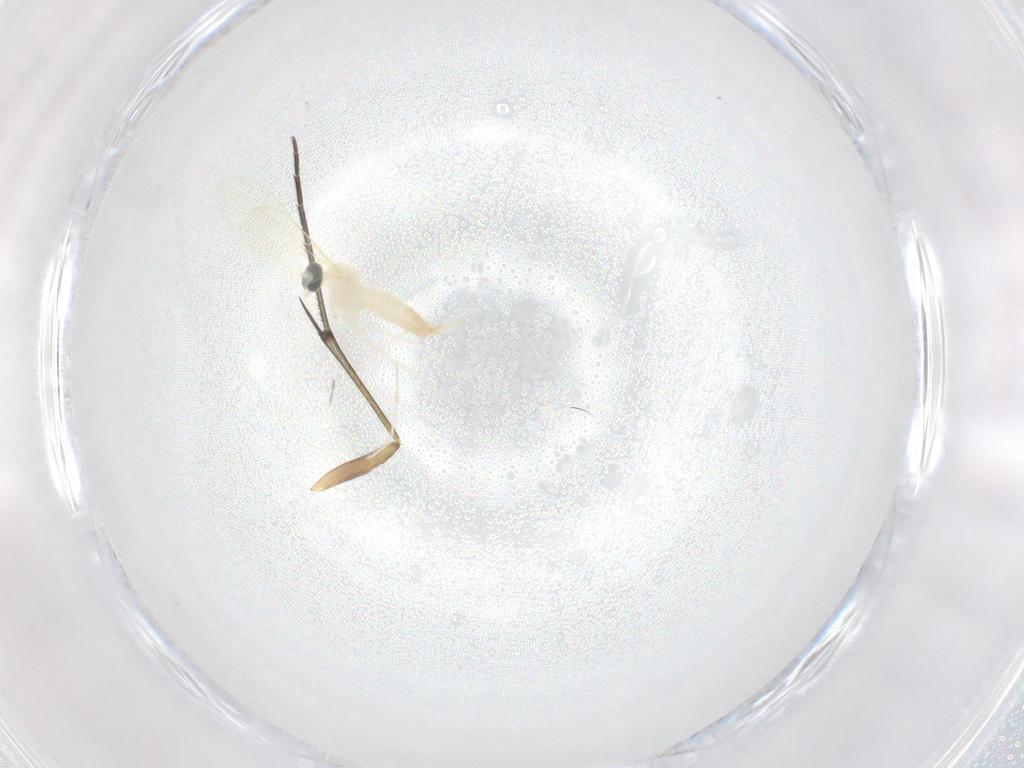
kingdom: Animalia
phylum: Arthropoda
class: Insecta
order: Diptera
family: Cecidomyiidae
